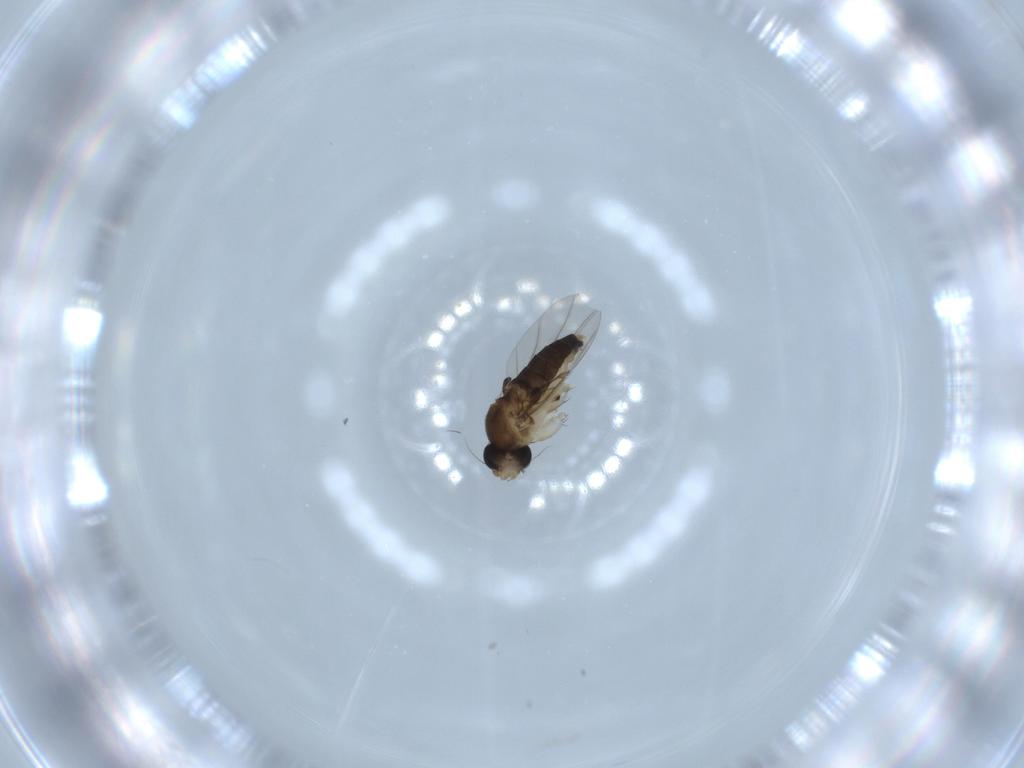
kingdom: Animalia
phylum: Arthropoda
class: Insecta
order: Diptera
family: Phoridae
